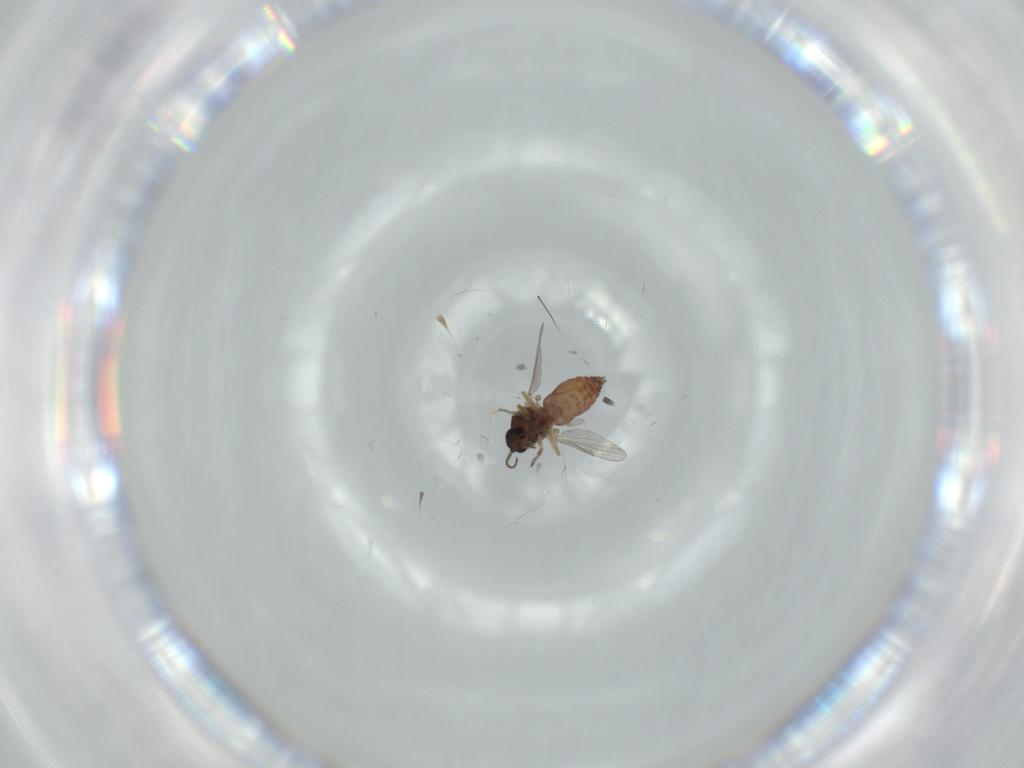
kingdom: Animalia
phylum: Arthropoda
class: Insecta
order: Diptera
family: Ceratopogonidae
